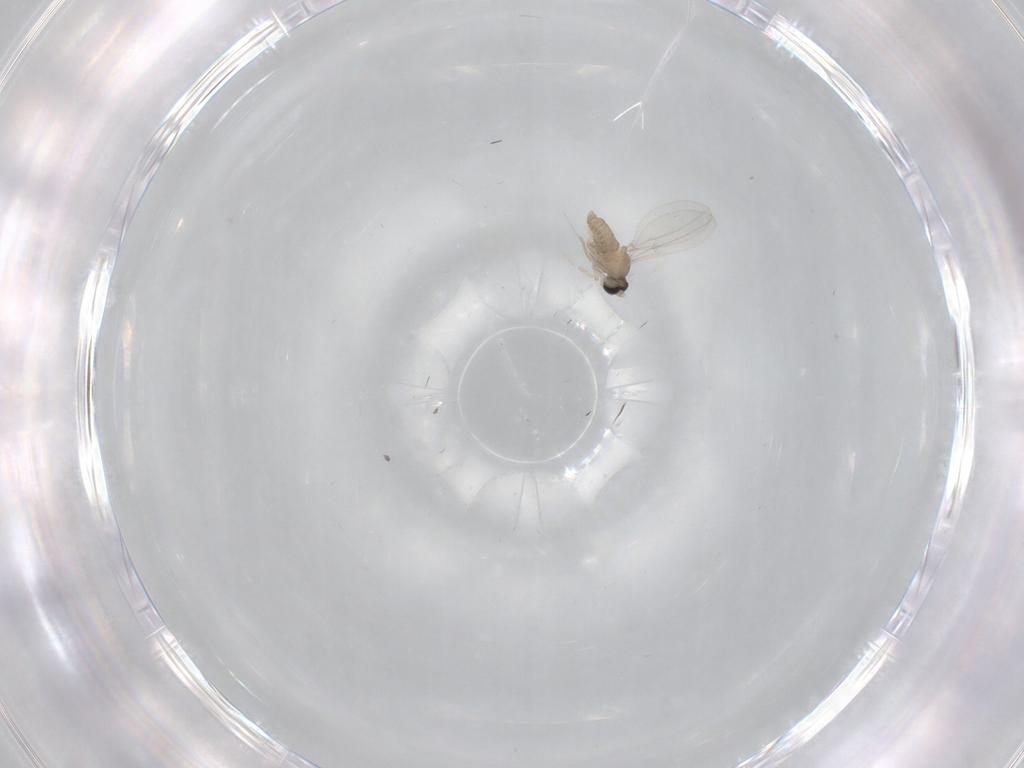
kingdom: Animalia
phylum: Arthropoda
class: Insecta
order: Diptera
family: Cecidomyiidae
